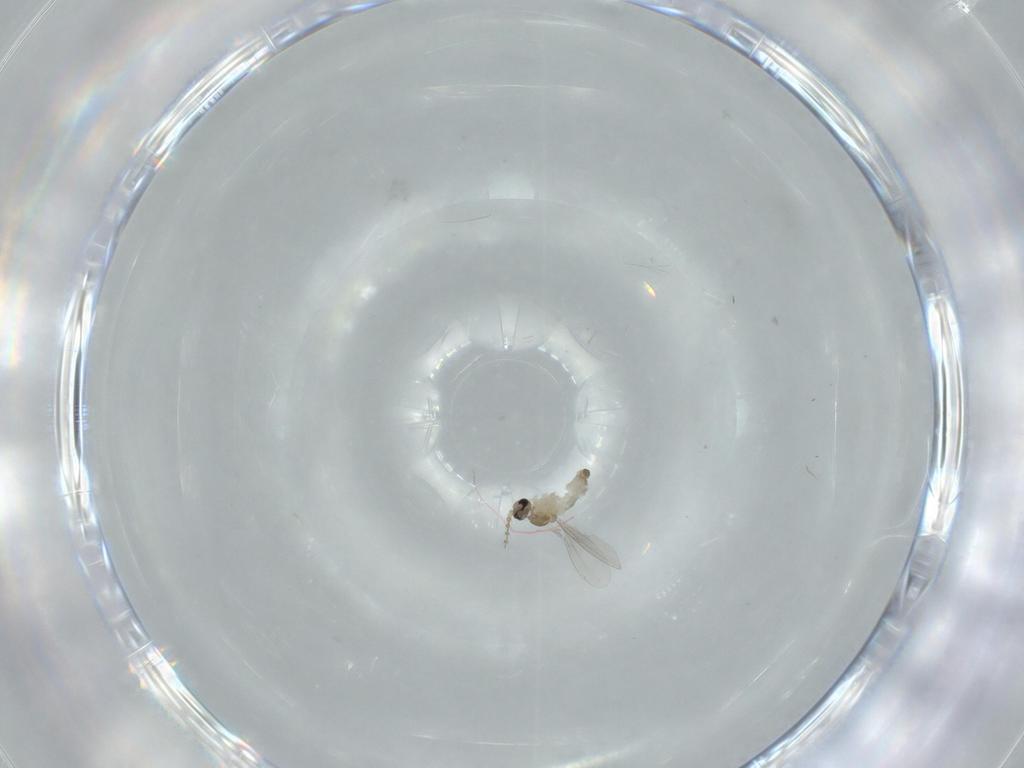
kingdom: Animalia
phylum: Arthropoda
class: Insecta
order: Diptera
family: Cecidomyiidae
